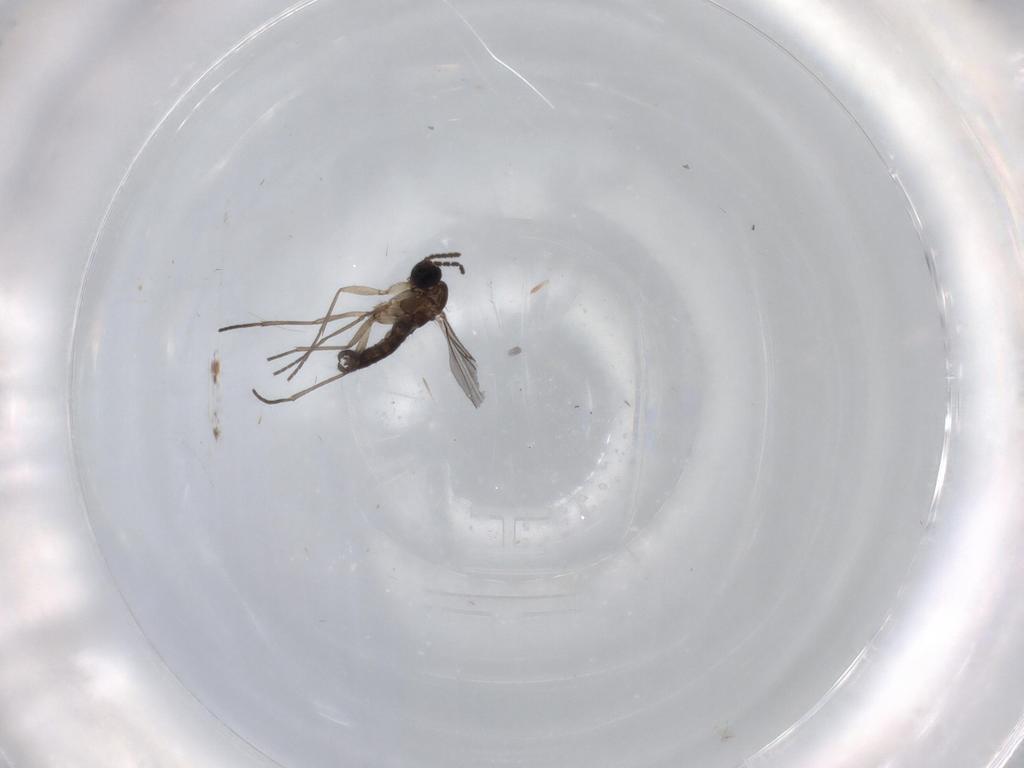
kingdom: Animalia
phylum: Arthropoda
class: Insecta
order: Diptera
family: Sciaridae
